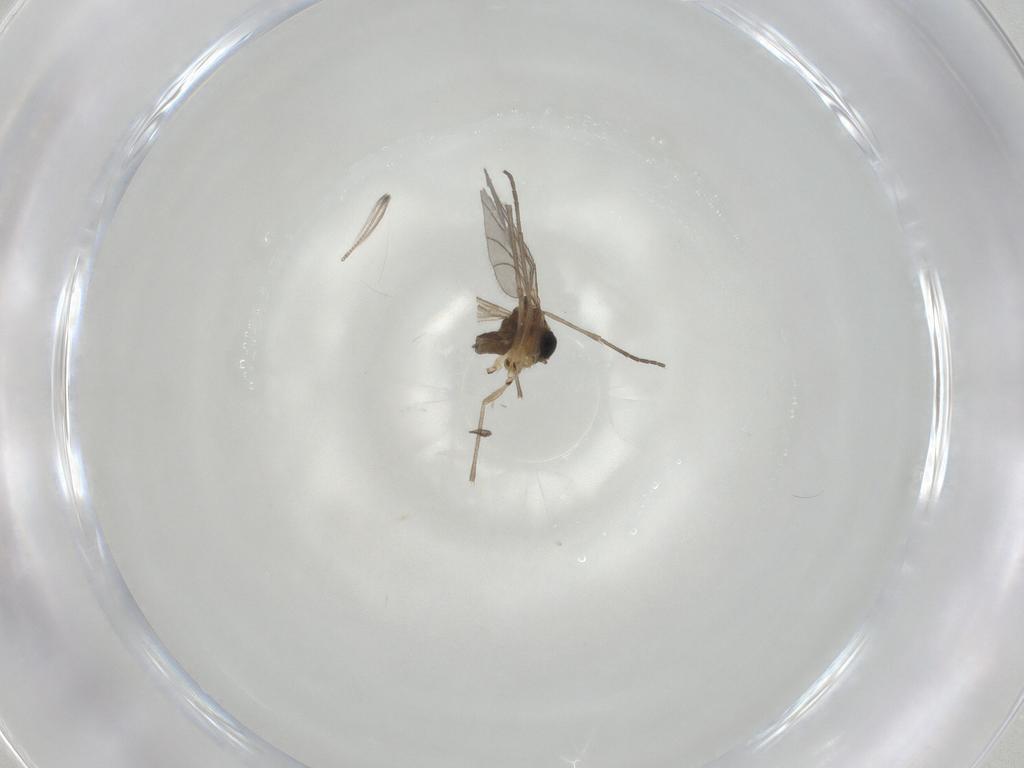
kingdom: Animalia
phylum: Arthropoda
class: Insecta
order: Diptera
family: Sciaridae
